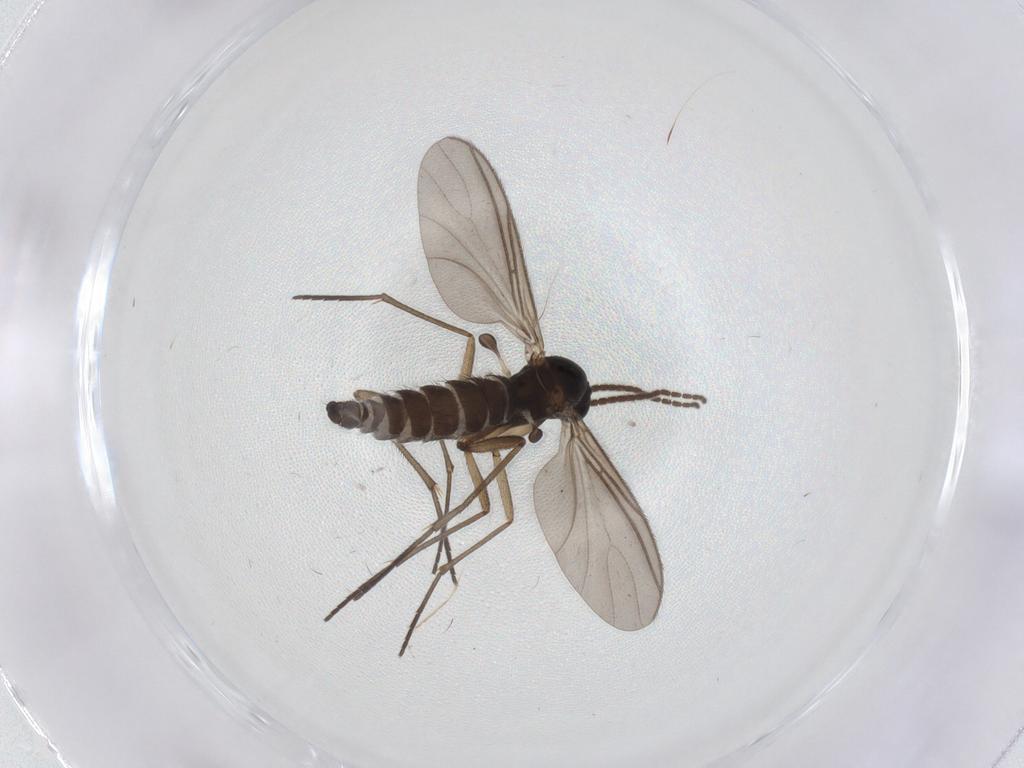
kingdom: Animalia
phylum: Arthropoda
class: Insecta
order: Diptera
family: Sciaridae
